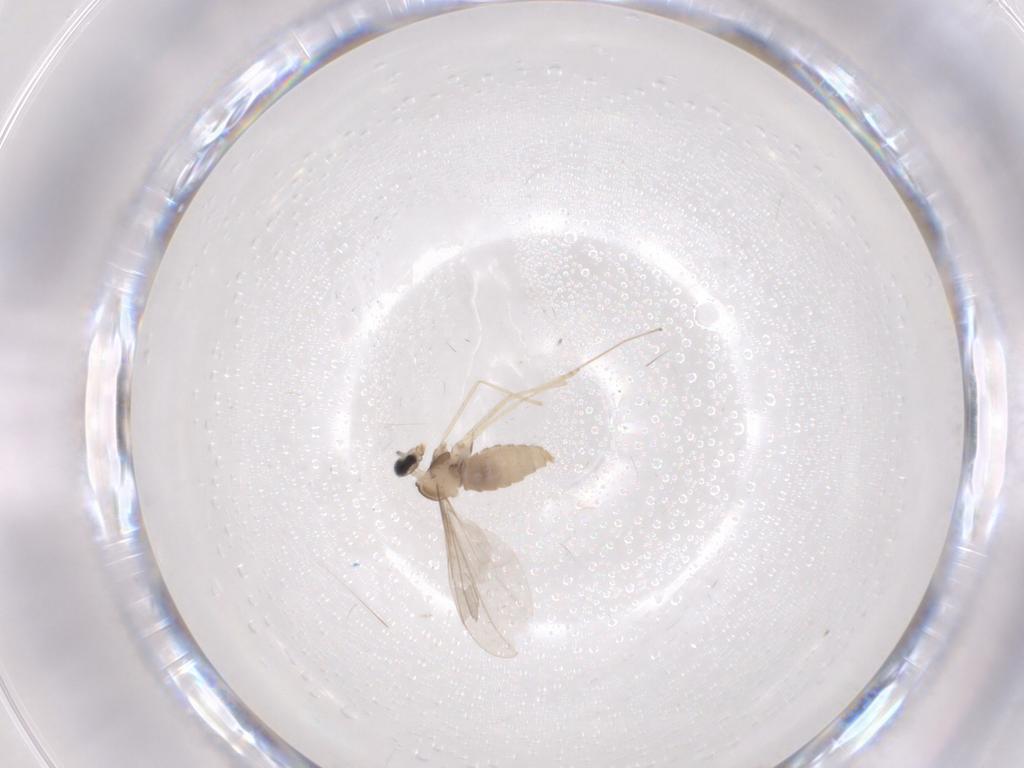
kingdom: Animalia
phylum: Arthropoda
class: Insecta
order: Diptera
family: Cecidomyiidae
